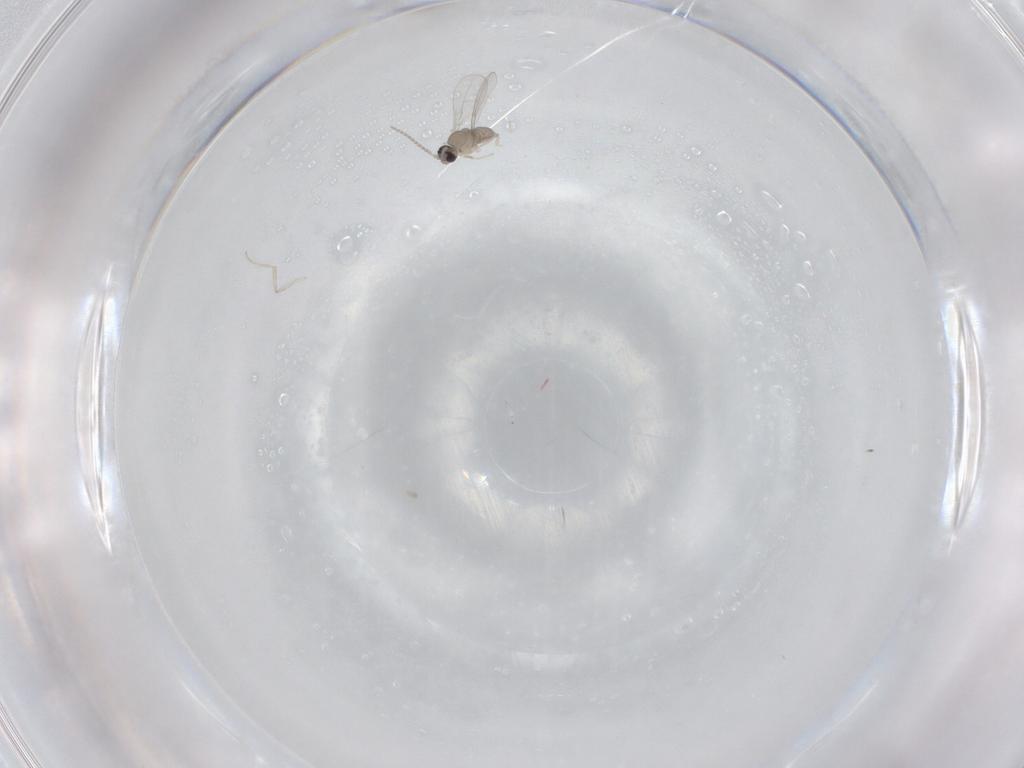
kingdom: Animalia
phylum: Arthropoda
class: Insecta
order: Diptera
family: Cecidomyiidae
